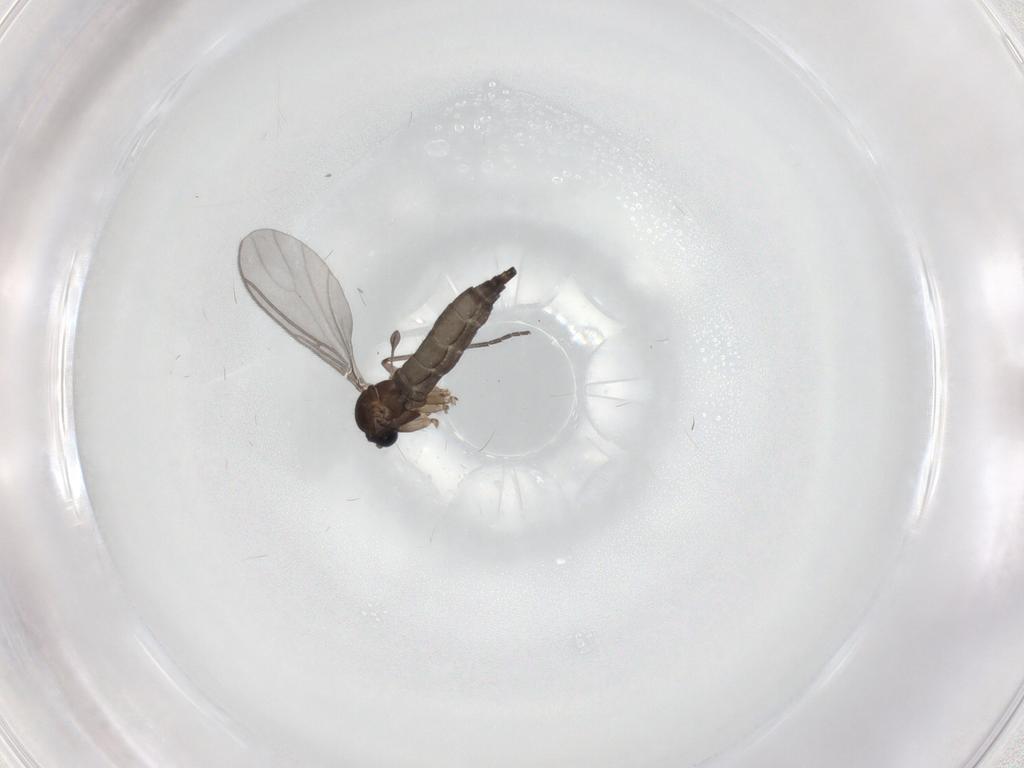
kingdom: Animalia
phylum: Arthropoda
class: Insecta
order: Diptera
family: Sciaridae
